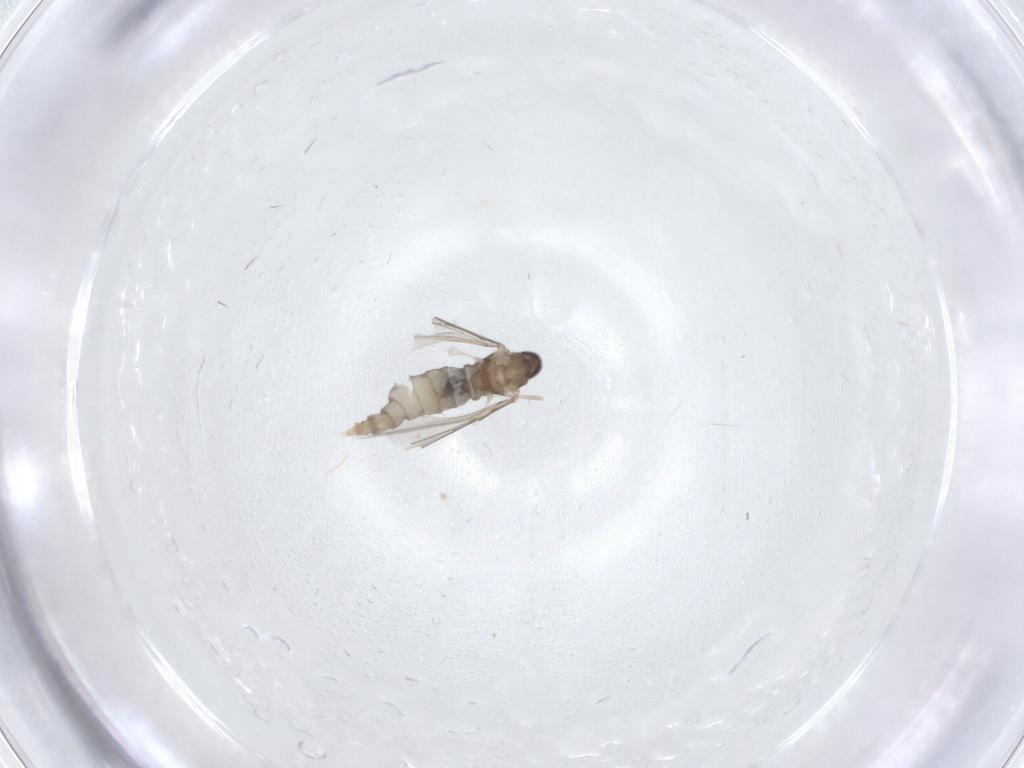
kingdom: Animalia
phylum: Arthropoda
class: Insecta
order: Diptera
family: Cecidomyiidae
